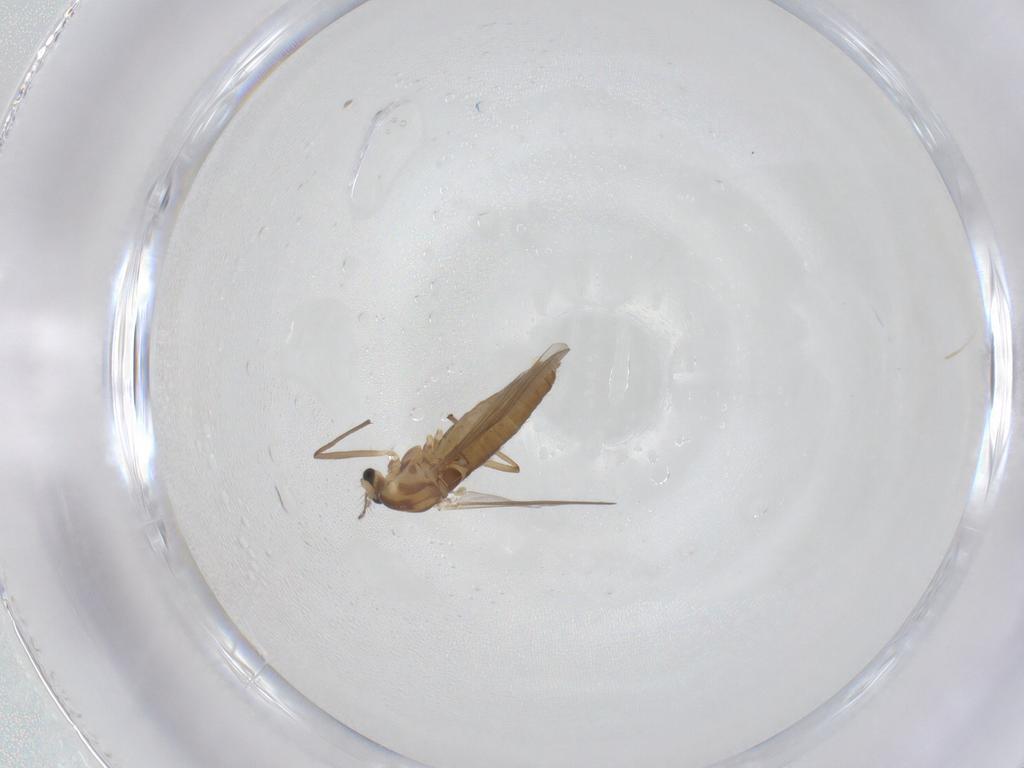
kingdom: Animalia
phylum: Arthropoda
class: Insecta
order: Diptera
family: Chironomidae
